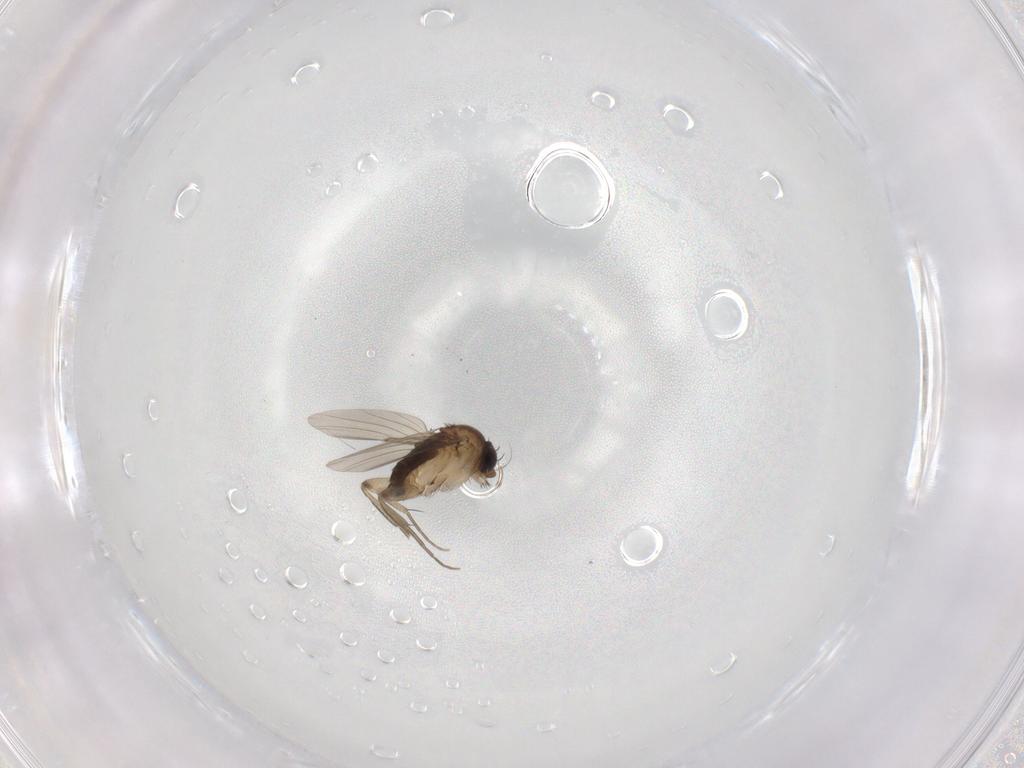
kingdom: Animalia
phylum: Arthropoda
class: Insecta
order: Diptera
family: Phoridae
